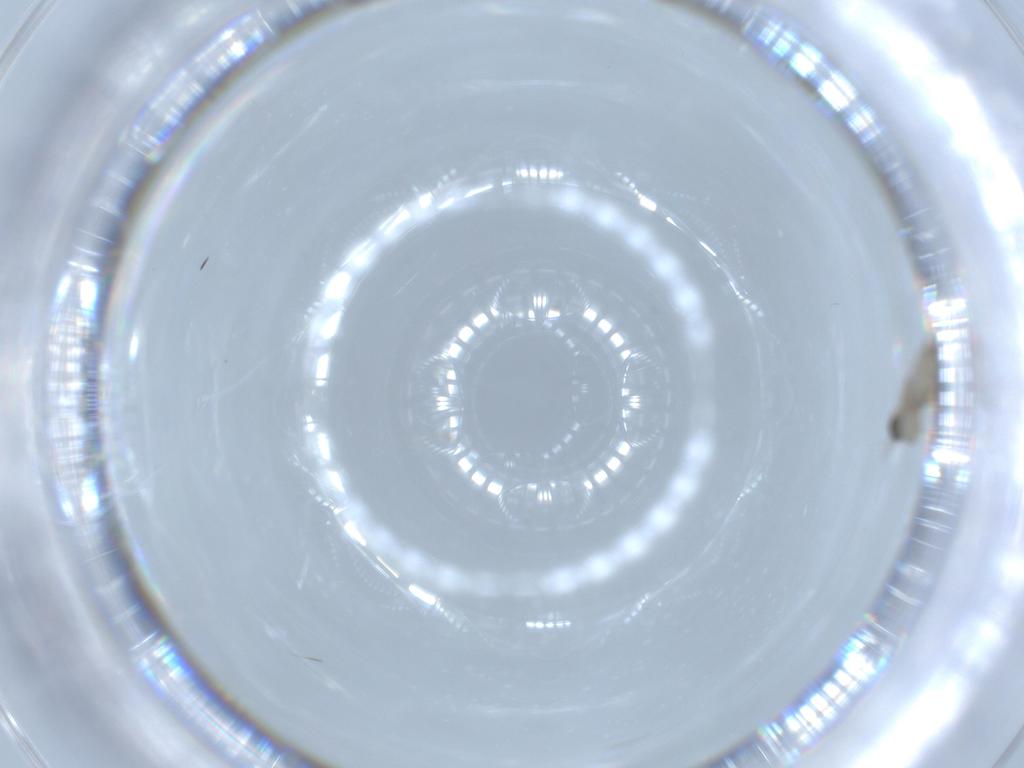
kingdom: Animalia
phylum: Arthropoda
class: Insecta
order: Diptera
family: Cecidomyiidae
